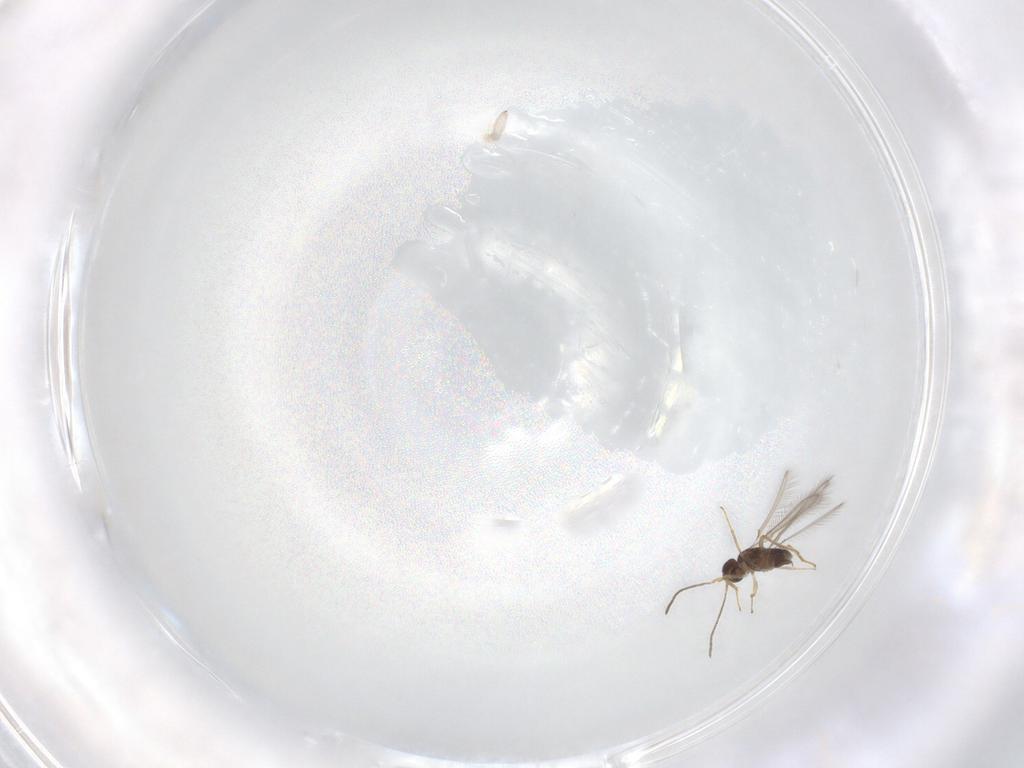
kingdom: Animalia
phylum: Arthropoda
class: Insecta
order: Hymenoptera
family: Mymaridae
